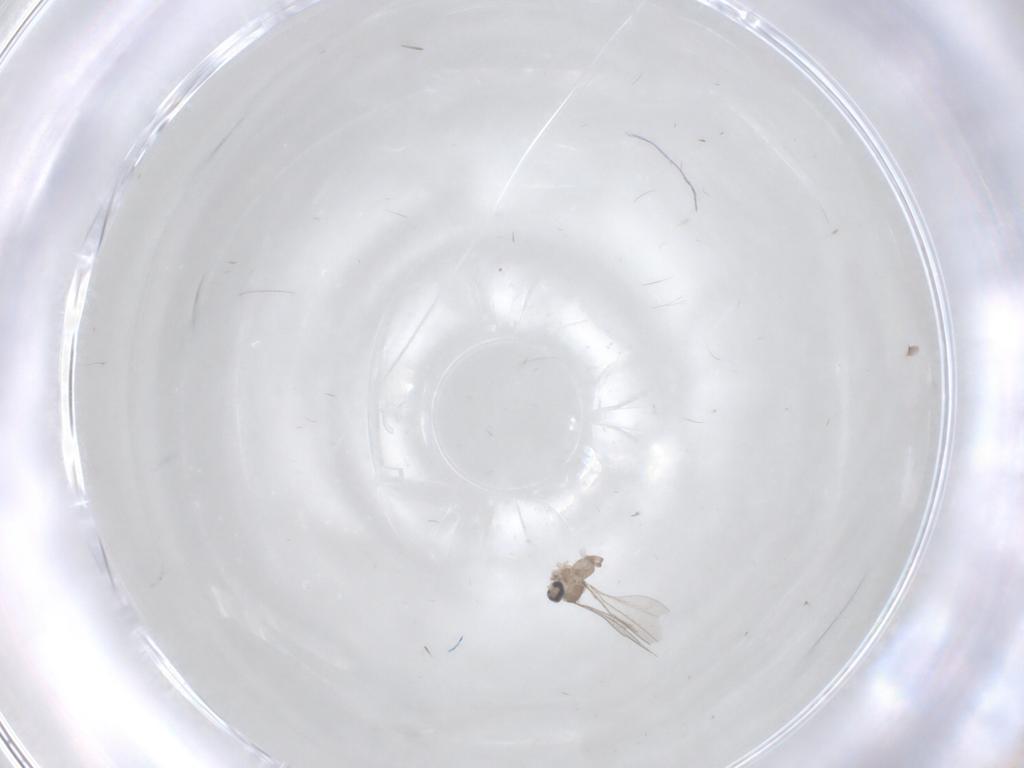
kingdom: Animalia
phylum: Arthropoda
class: Insecta
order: Diptera
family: Cecidomyiidae
